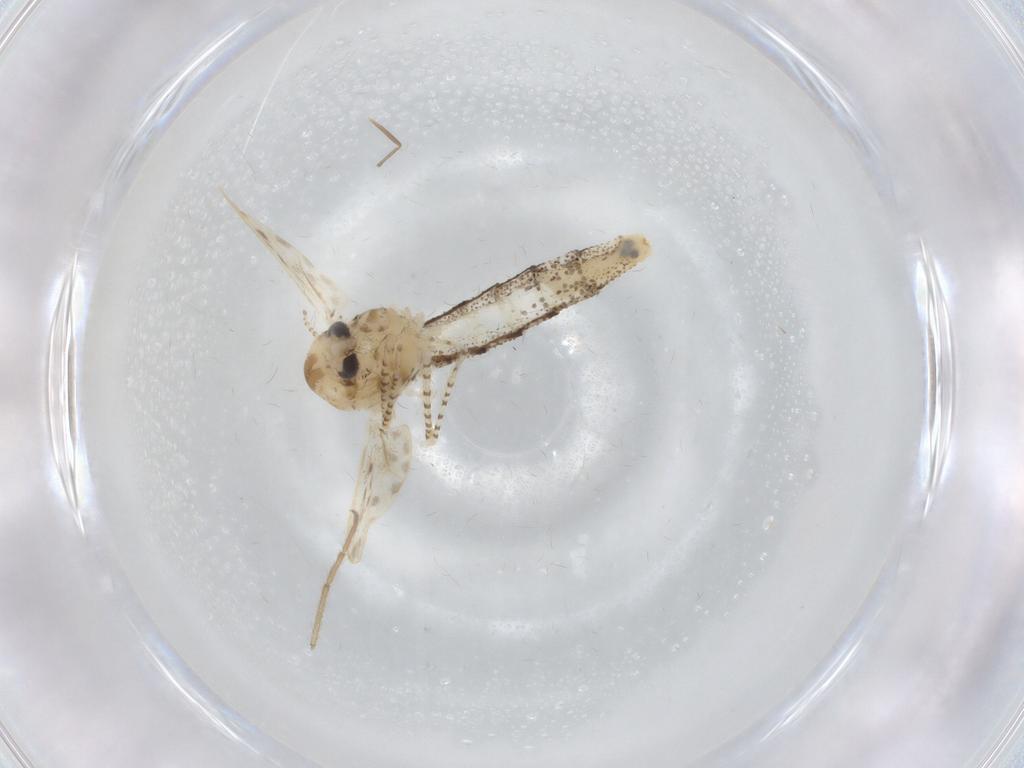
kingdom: Animalia
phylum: Arthropoda
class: Insecta
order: Diptera
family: Chaoboridae
